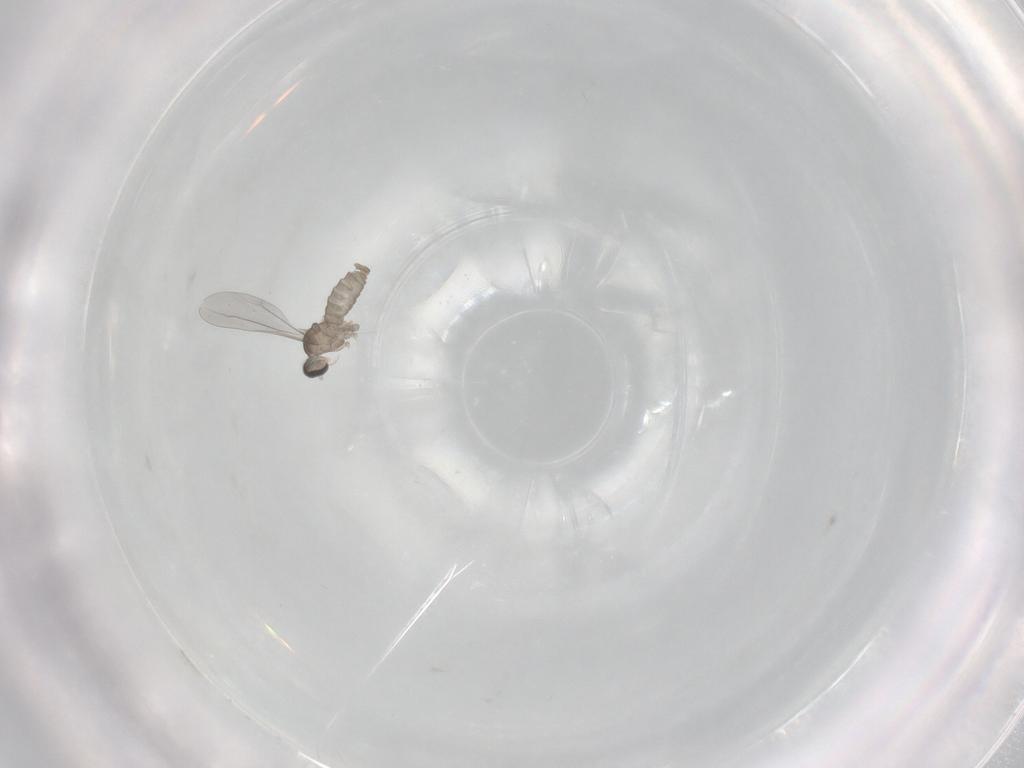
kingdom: Animalia
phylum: Arthropoda
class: Insecta
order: Diptera
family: Cecidomyiidae
